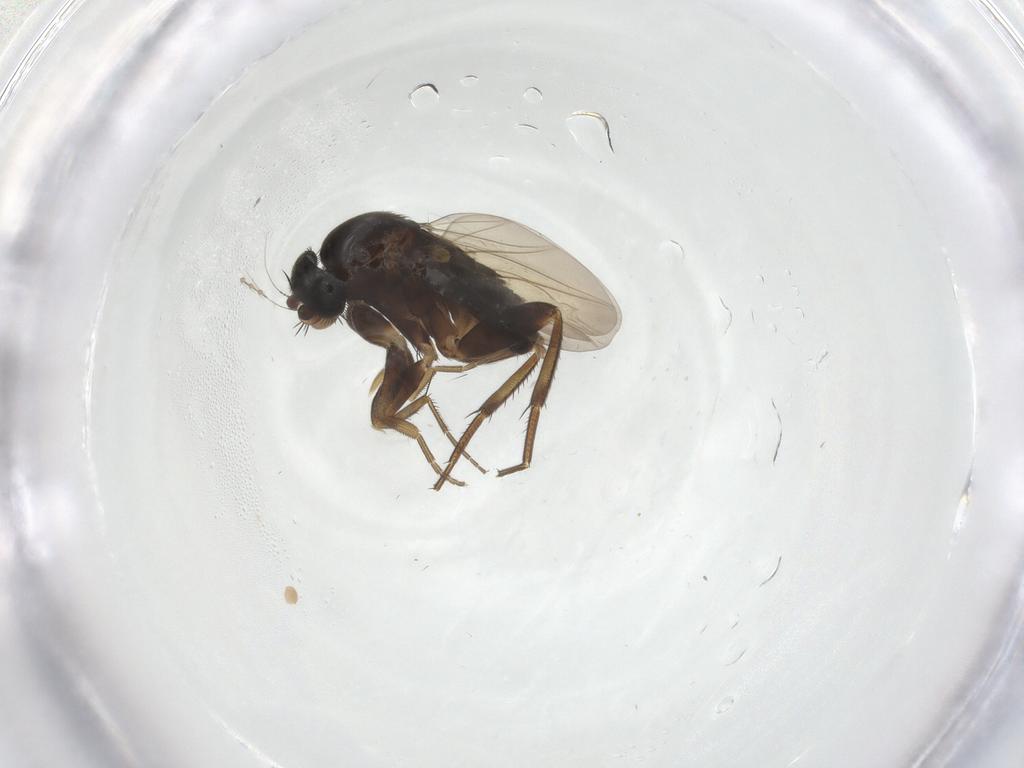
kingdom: Animalia
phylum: Arthropoda
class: Insecta
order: Diptera
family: Phoridae
